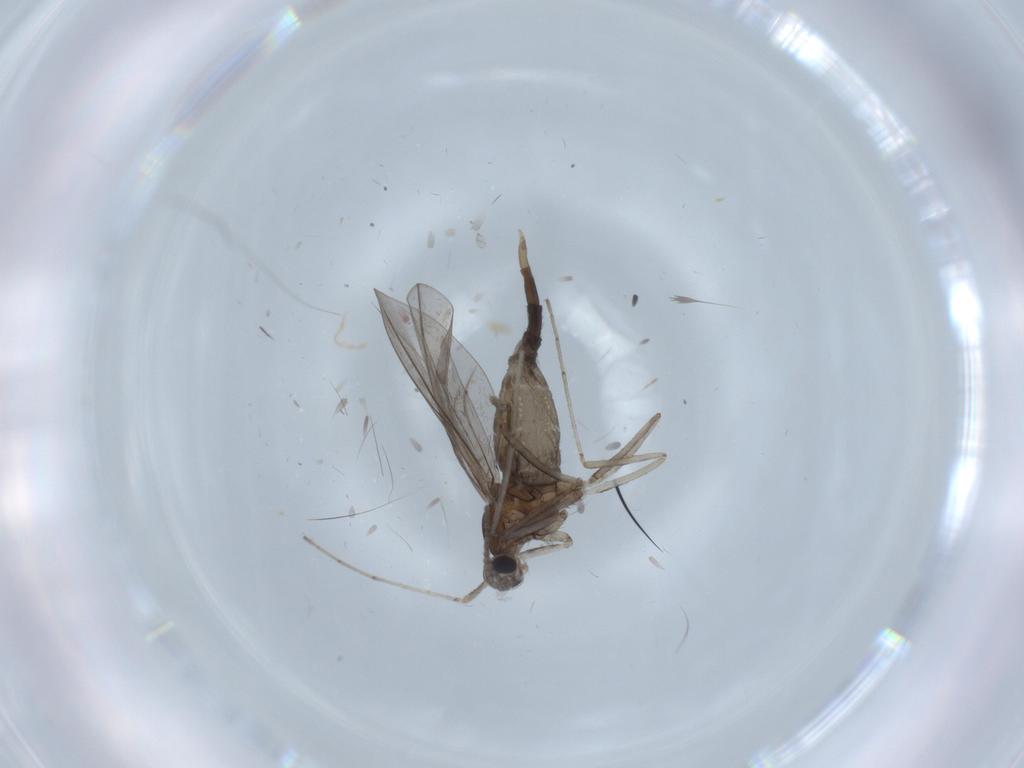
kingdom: Animalia
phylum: Arthropoda
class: Insecta
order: Diptera
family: Cecidomyiidae
